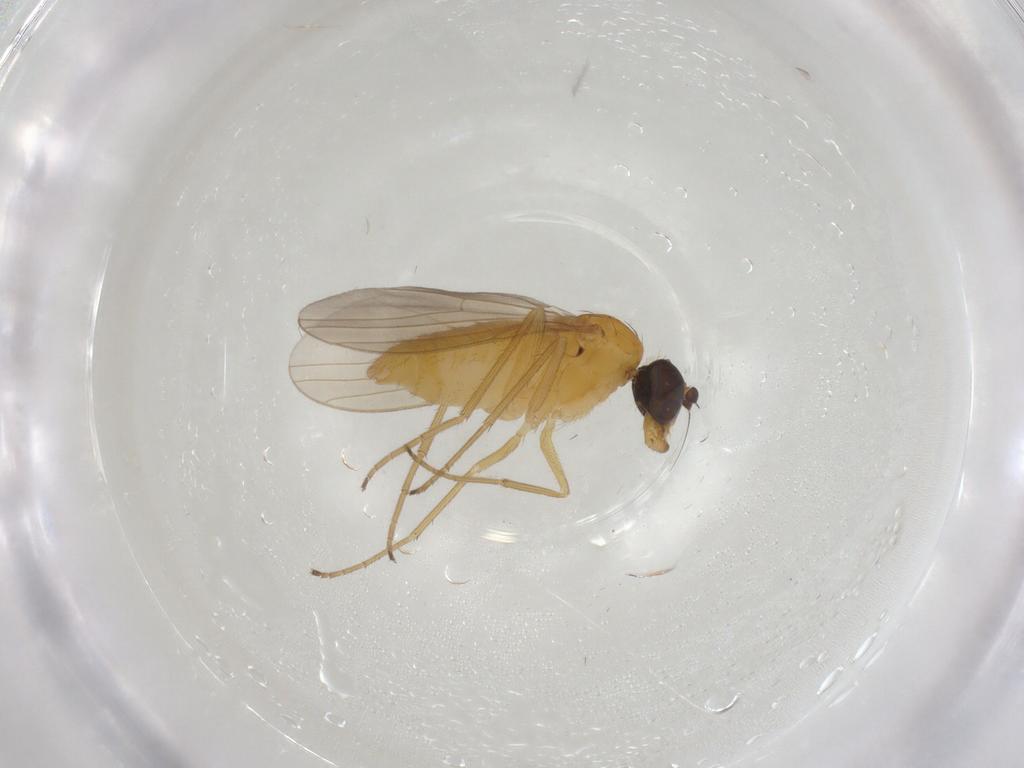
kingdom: Animalia
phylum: Arthropoda
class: Insecta
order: Diptera
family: Dolichopodidae
